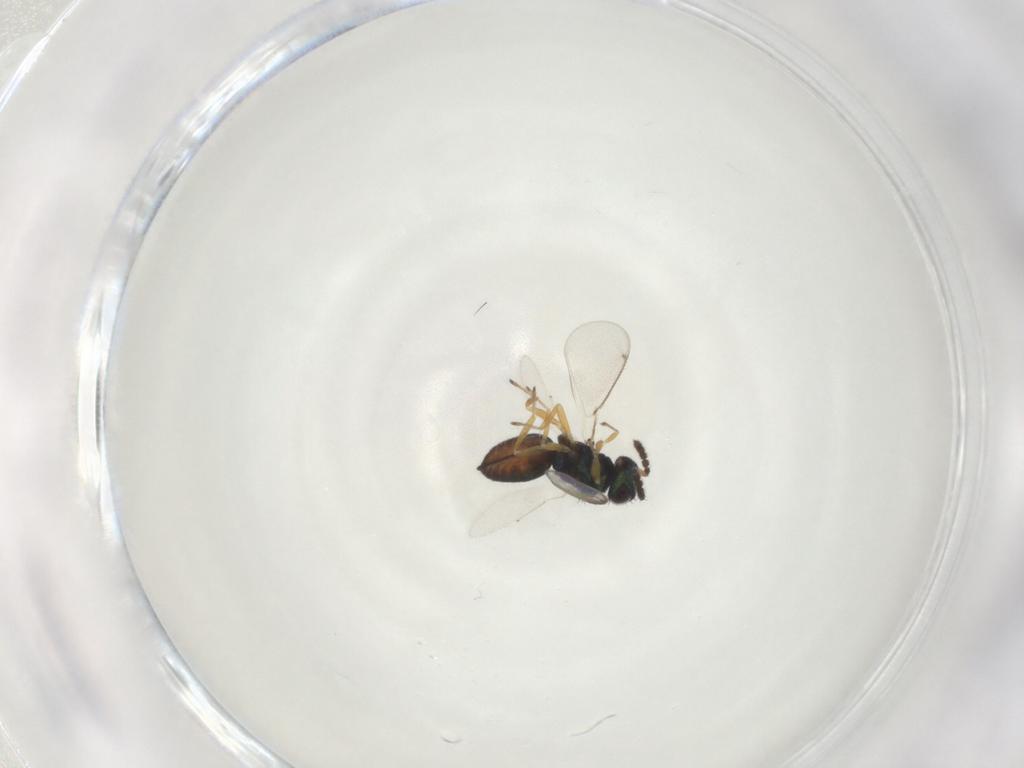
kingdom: Animalia
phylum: Arthropoda
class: Insecta
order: Hymenoptera
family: Eulophidae
